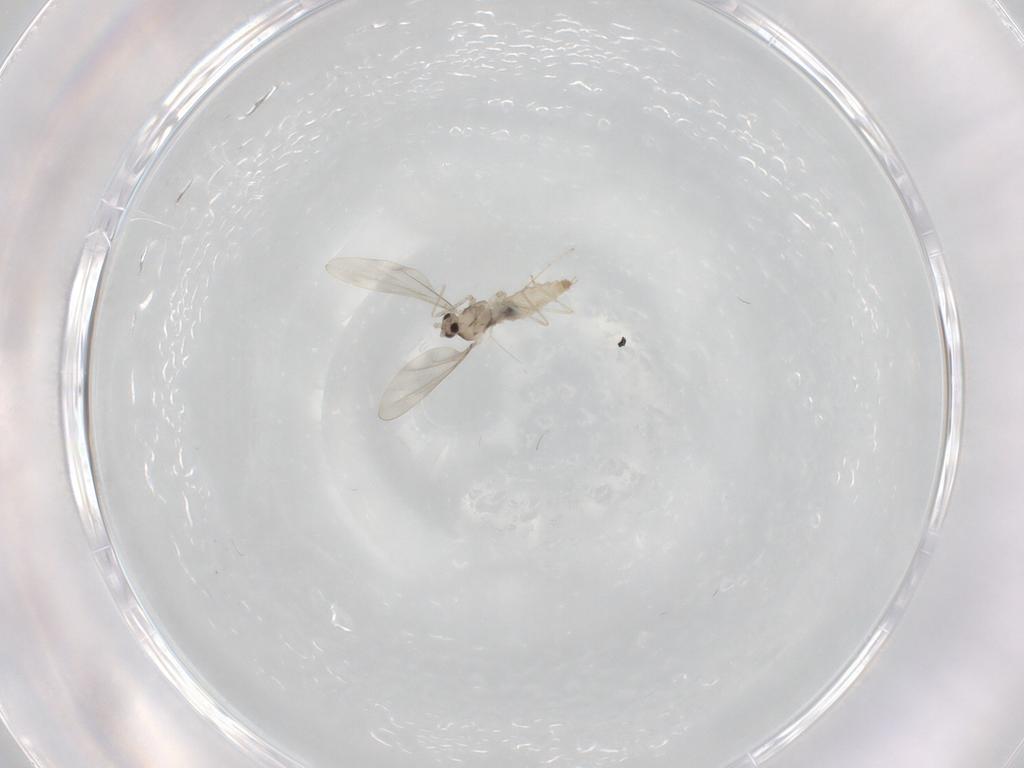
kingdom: Animalia
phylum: Arthropoda
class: Insecta
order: Diptera
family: Cecidomyiidae
